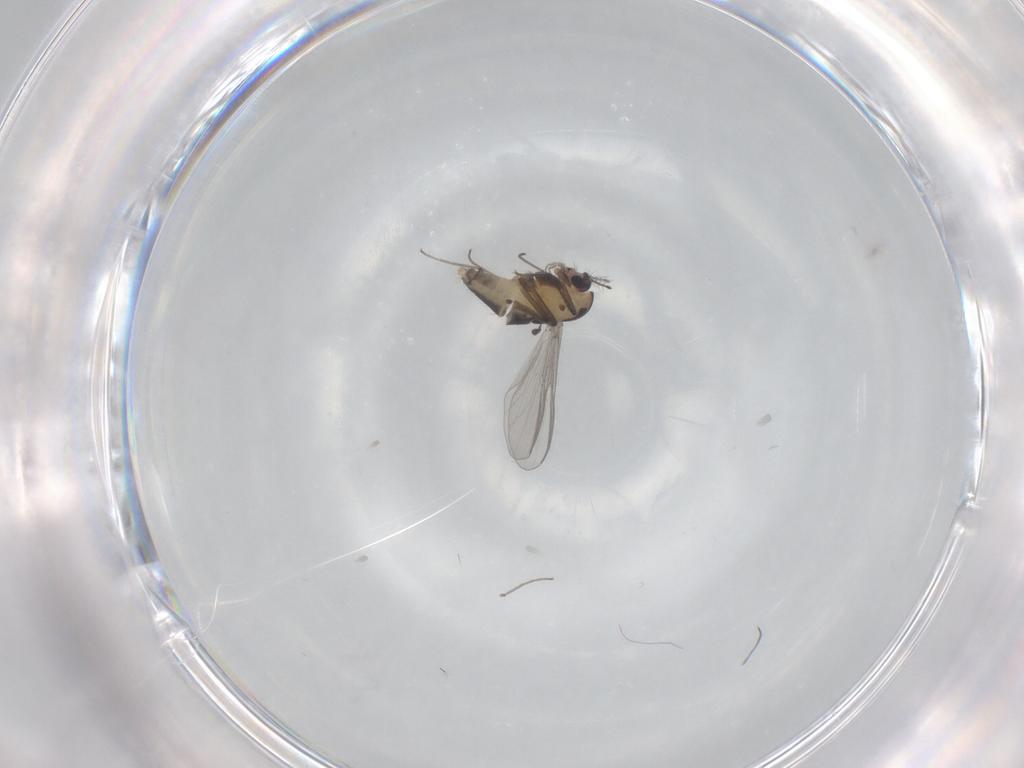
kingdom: Animalia
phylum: Arthropoda
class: Insecta
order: Diptera
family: Chironomidae
